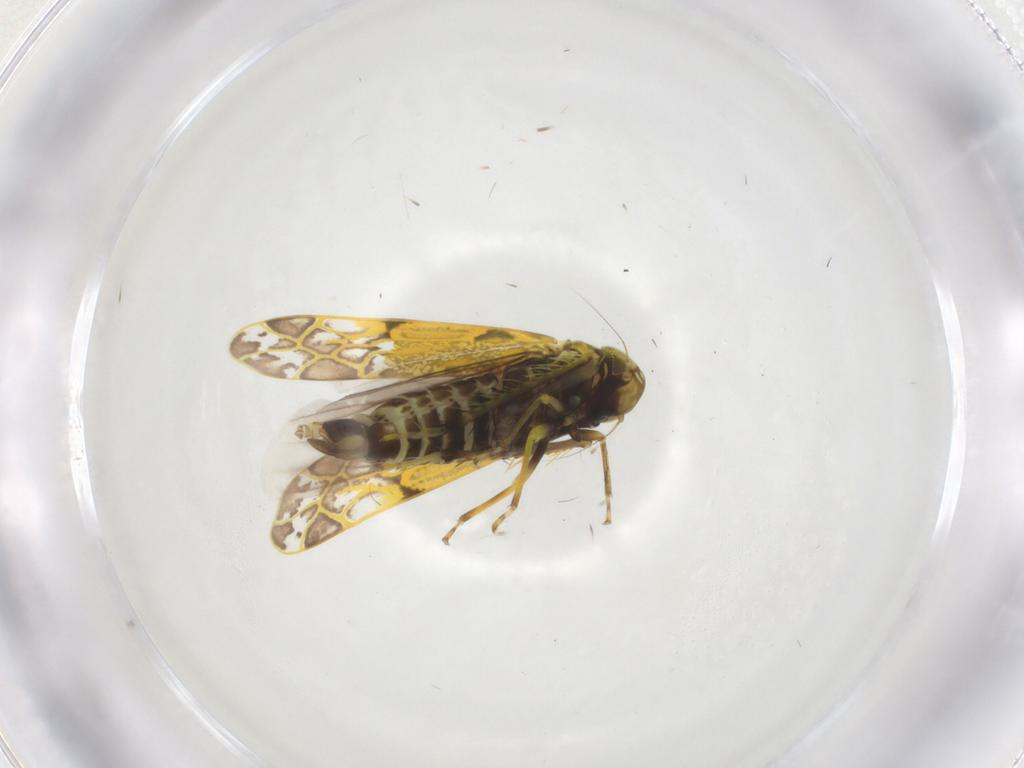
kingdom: Animalia
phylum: Arthropoda
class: Insecta
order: Hemiptera
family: Cicadellidae
